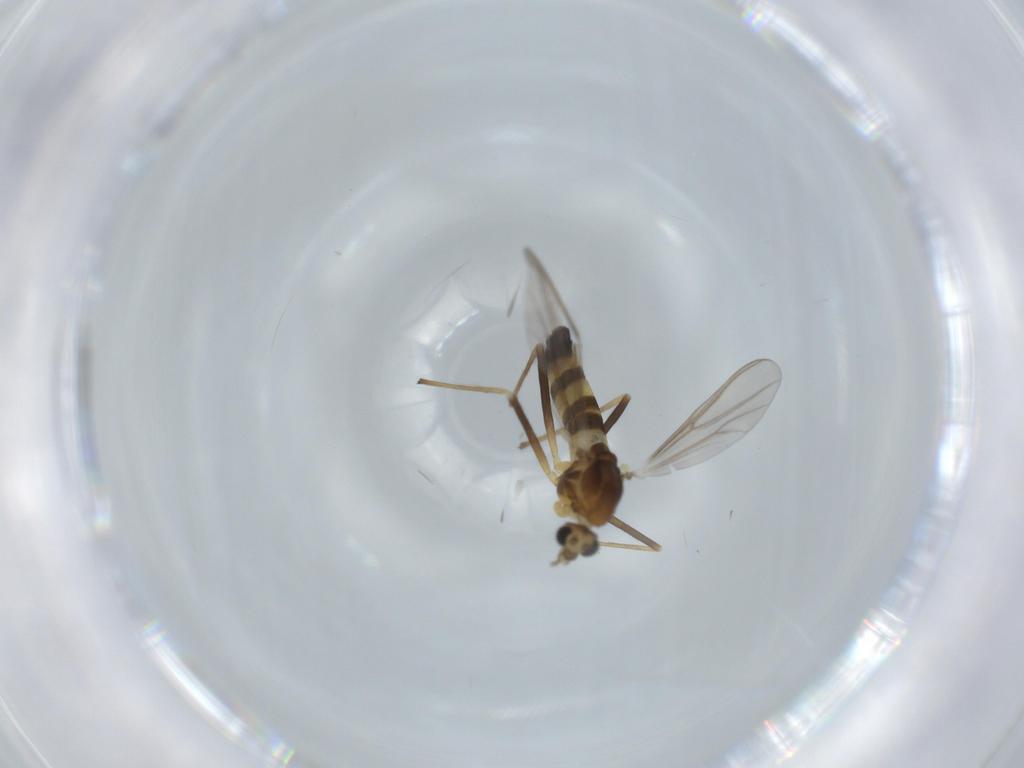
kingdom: Animalia
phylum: Arthropoda
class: Insecta
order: Diptera
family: Chironomidae
